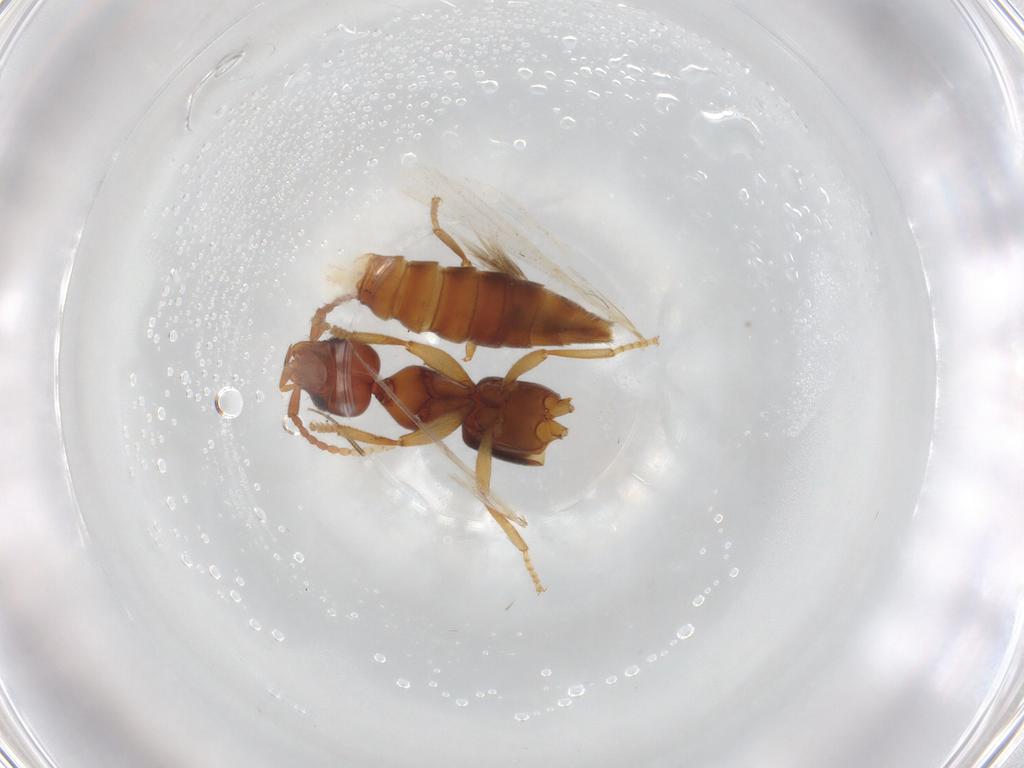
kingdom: Animalia
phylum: Arthropoda
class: Insecta
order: Coleoptera
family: Staphylinidae
